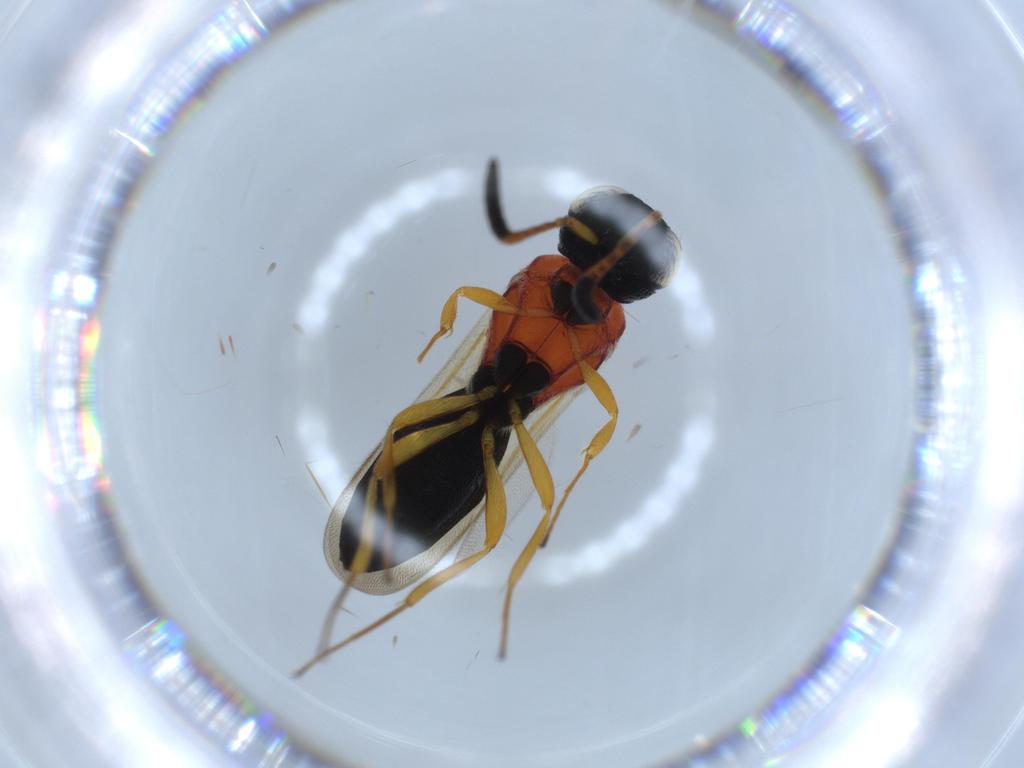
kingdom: Animalia
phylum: Arthropoda
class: Insecta
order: Hymenoptera
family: Scelionidae
